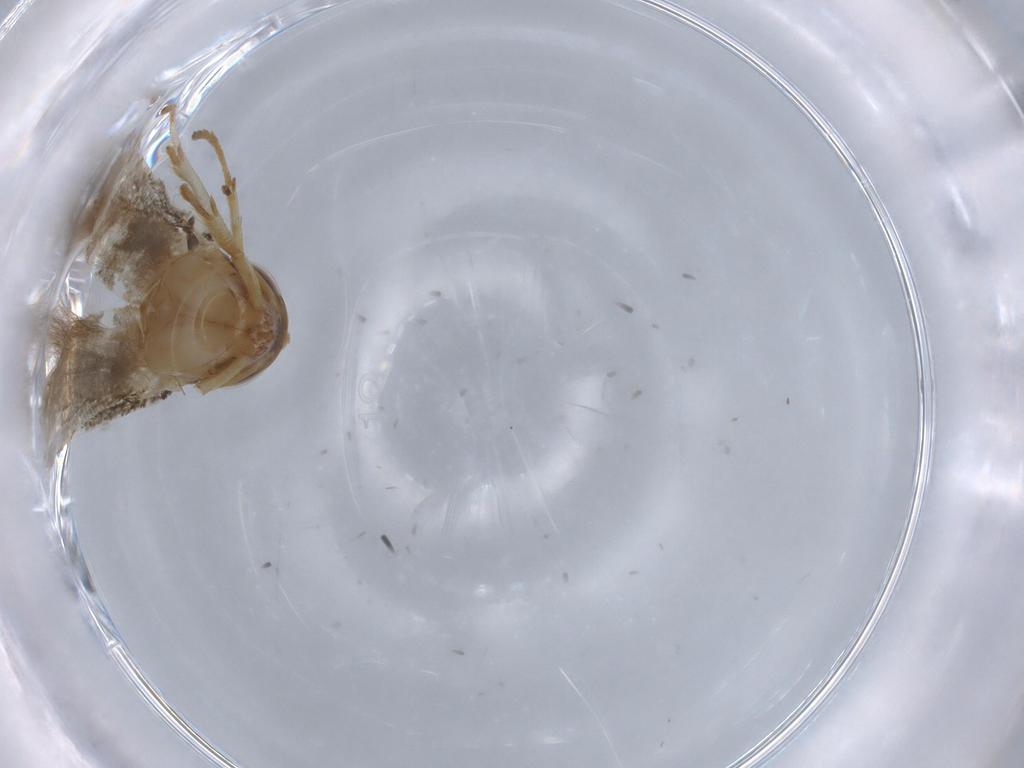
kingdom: Animalia
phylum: Arthropoda
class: Insecta
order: Lepidoptera
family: Blastobasidae
